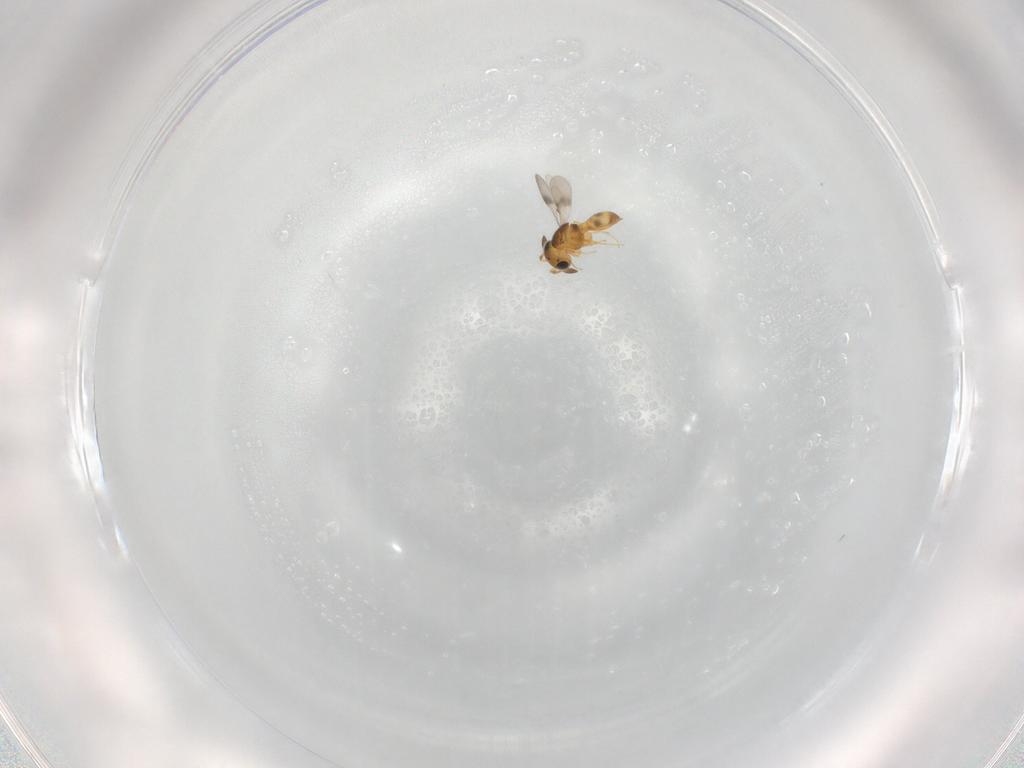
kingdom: Animalia
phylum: Arthropoda
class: Insecta
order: Hymenoptera
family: Scelionidae
